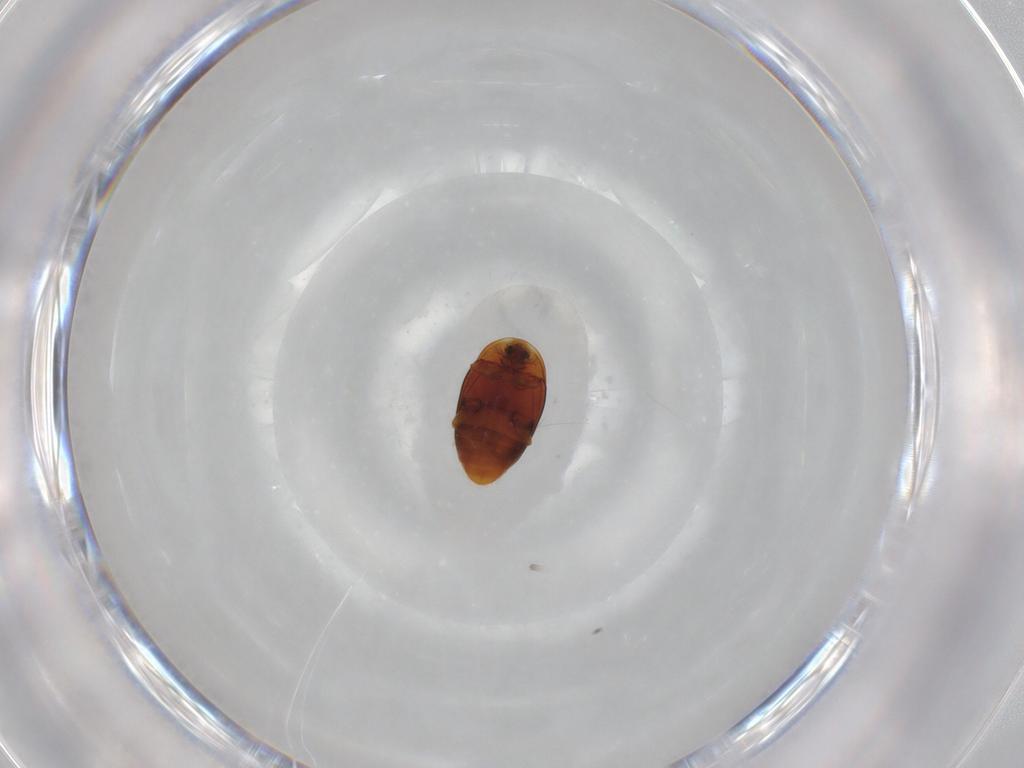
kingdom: Animalia
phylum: Arthropoda
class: Insecta
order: Coleoptera
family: Corylophidae
